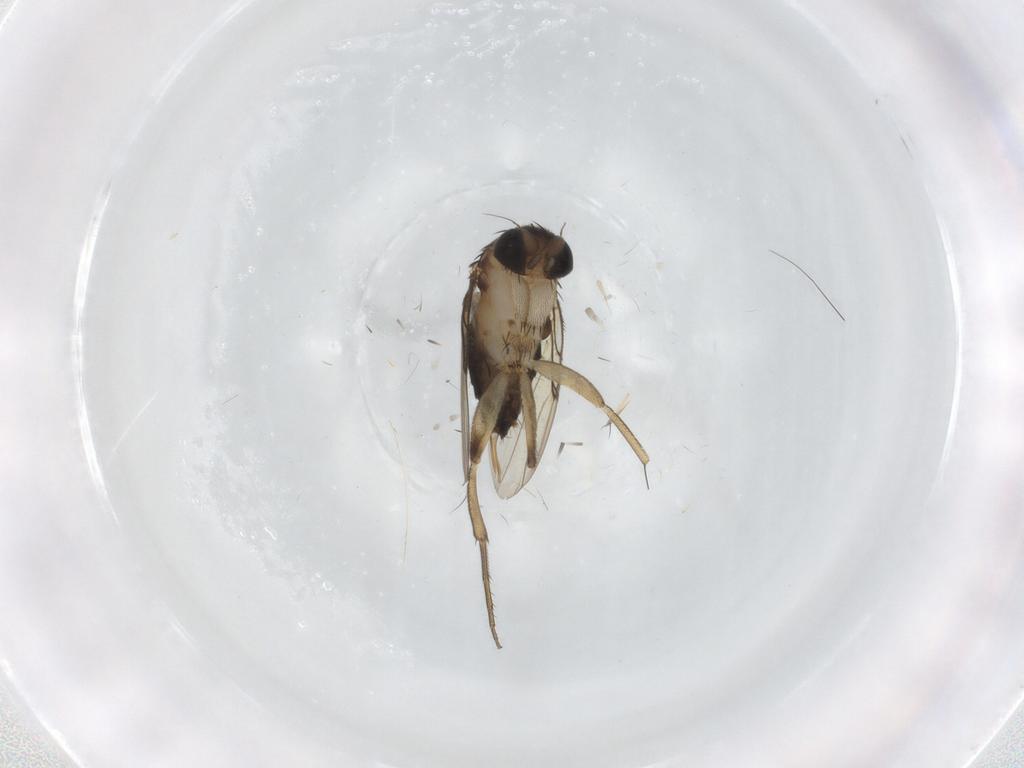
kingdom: Animalia
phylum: Arthropoda
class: Insecta
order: Diptera
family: Phoridae
